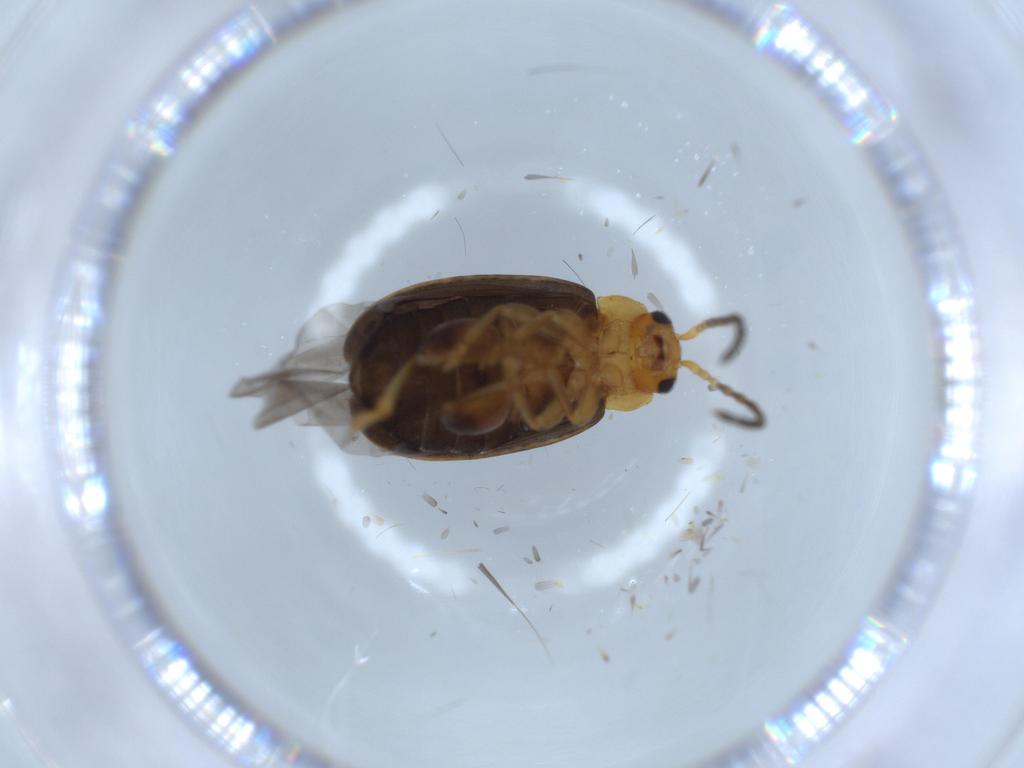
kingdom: Animalia
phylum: Arthropoda
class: Insecta
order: Coleoptera
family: Chrysomelidae
